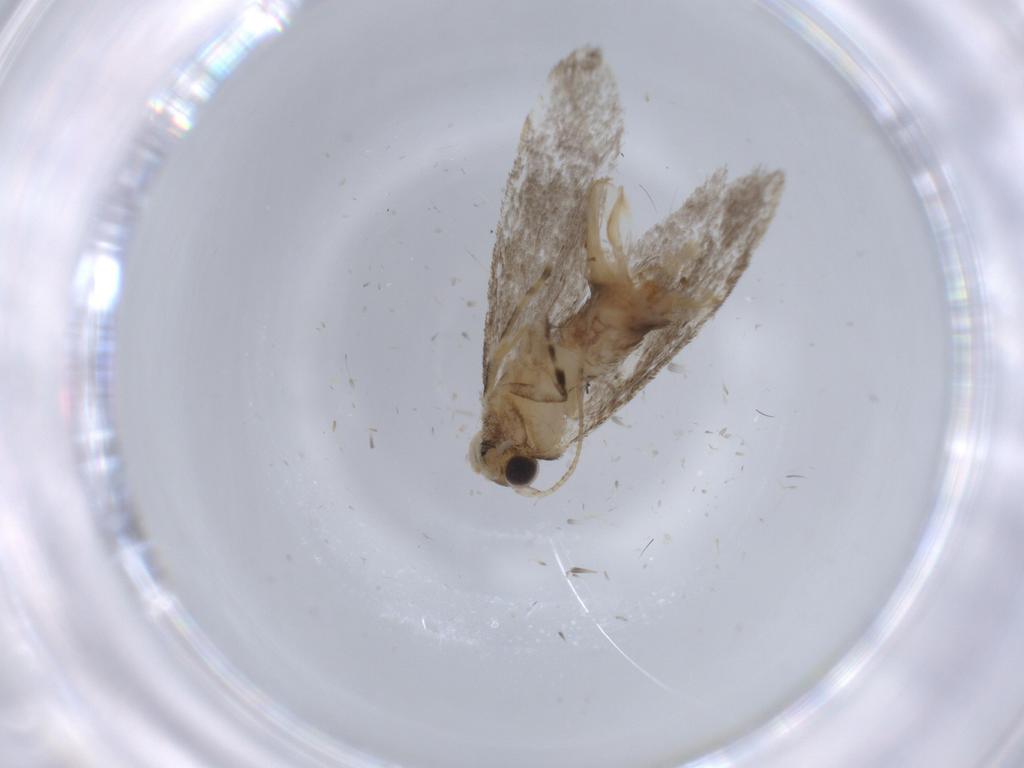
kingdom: Animalia
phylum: Arthropoda
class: Insecta
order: Lepidoptera
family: Tineidae
